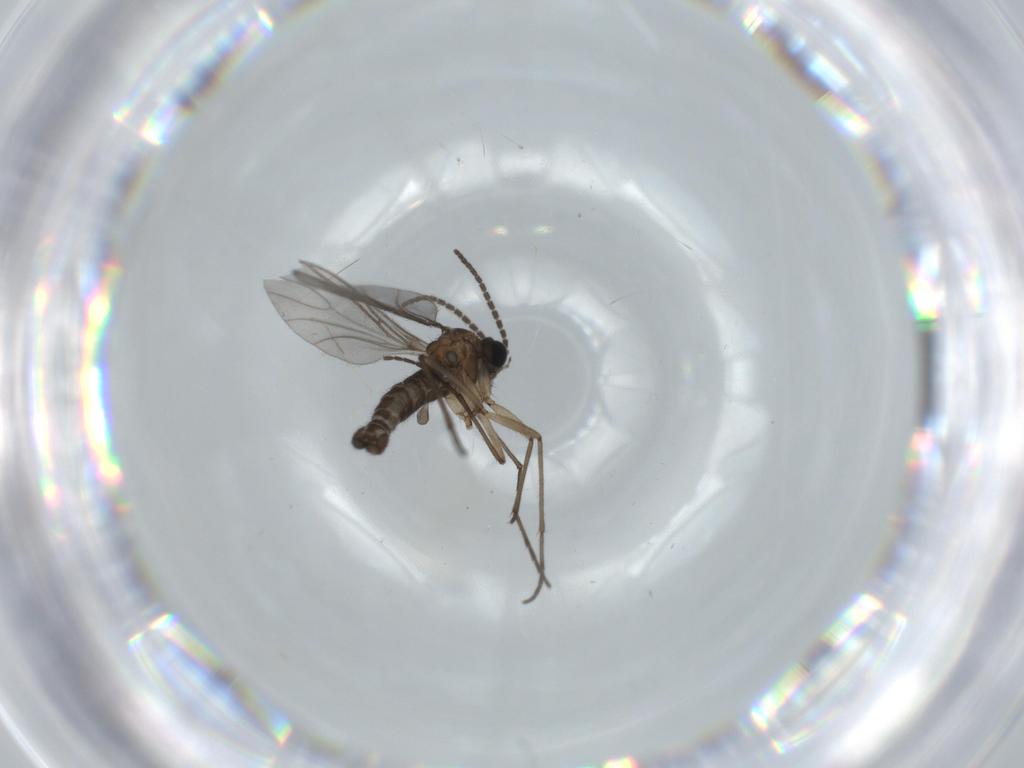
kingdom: Animalia
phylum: Arthropoda
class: Insecta
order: Diptera
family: Sciaridae
